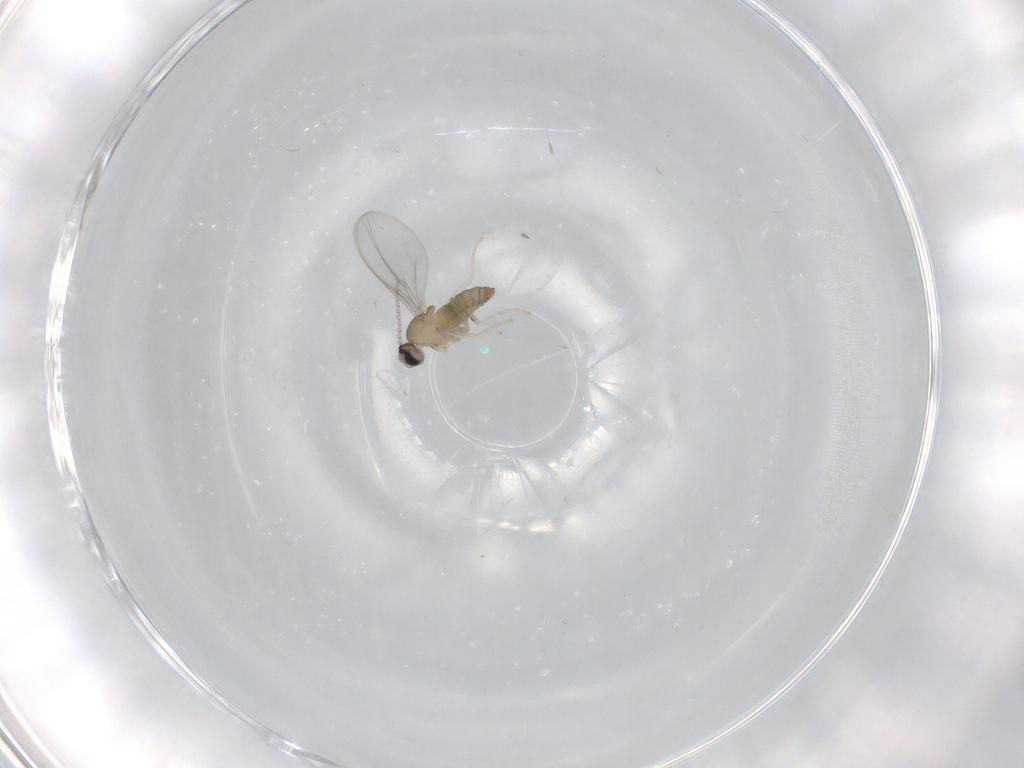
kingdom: Animalia
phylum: Arthropoda
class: Insecta
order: Diptera
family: Cecidomyiidae
